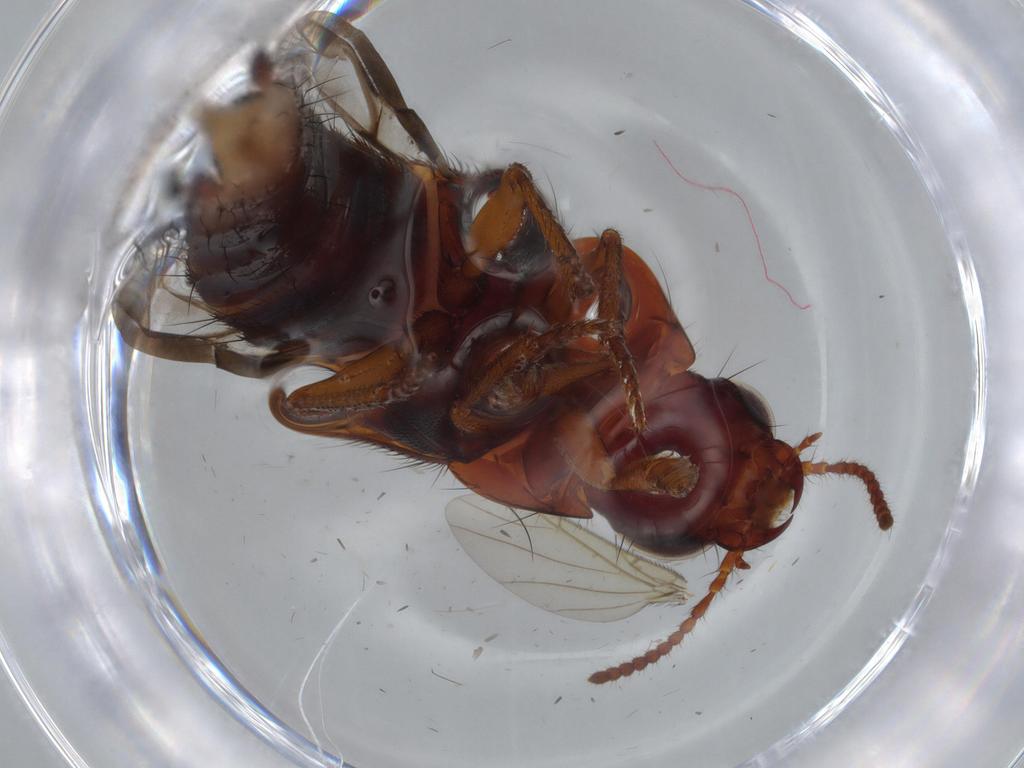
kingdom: Animalia
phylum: Arthropoda
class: Insecta
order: Coleoptera
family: Staphylinidae
